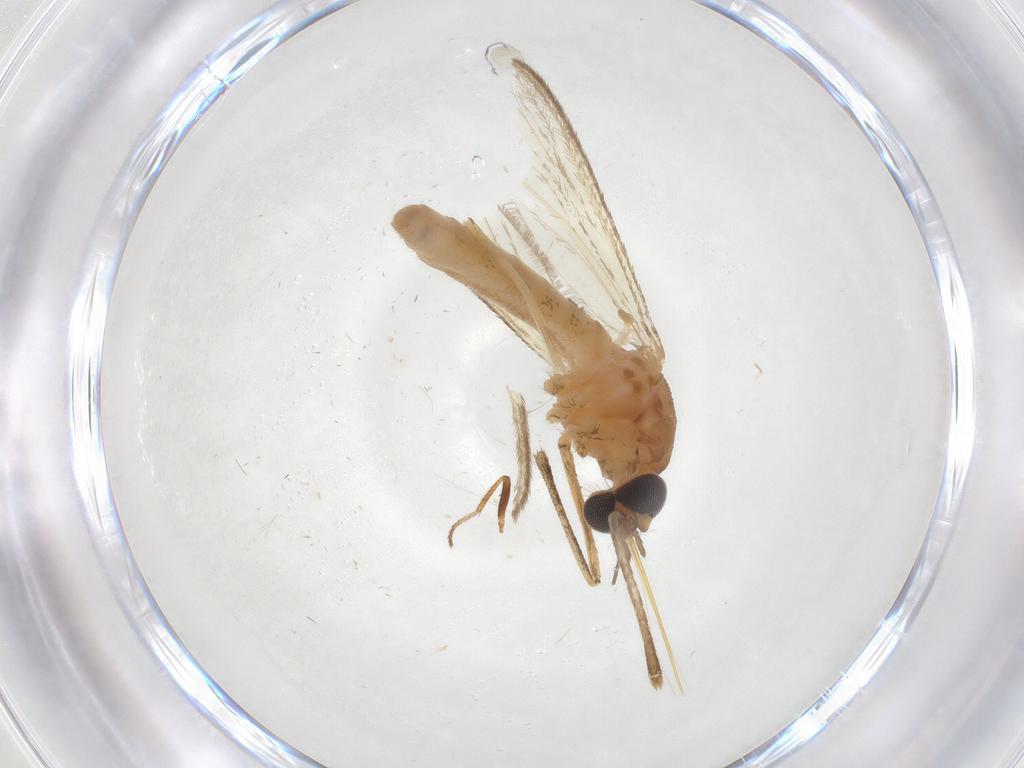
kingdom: Animalia
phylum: Arthropoda
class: Insecta
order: Diptera
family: Cecidomyiidae
